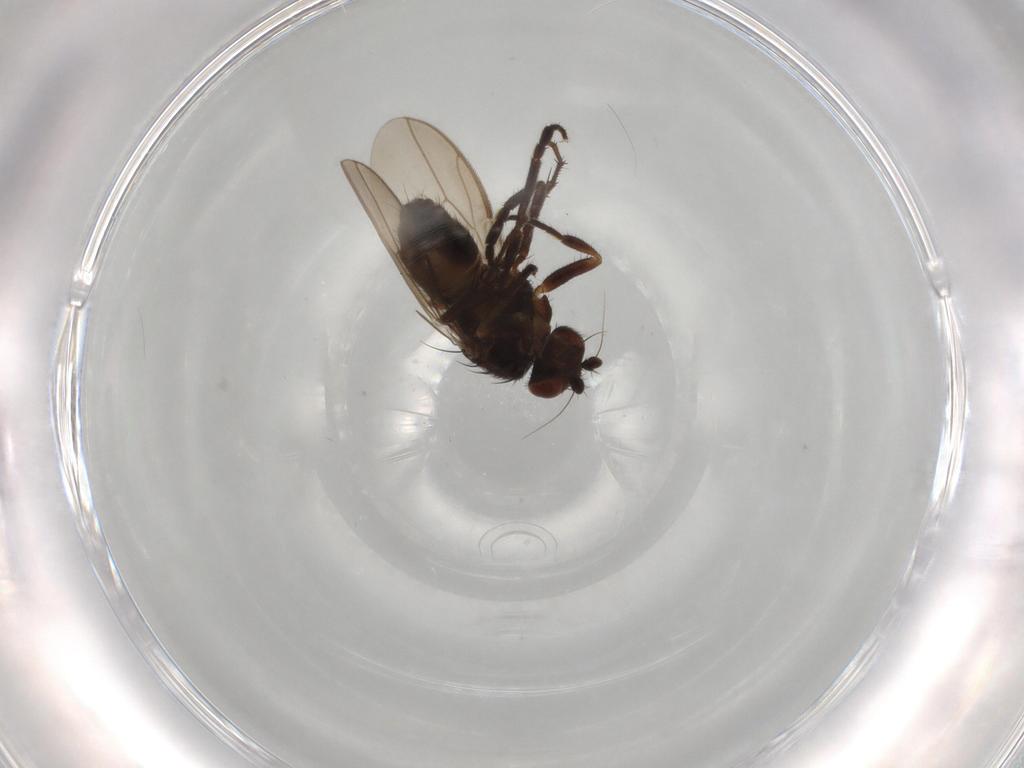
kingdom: Animalia
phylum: Arthropoda
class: Insecta
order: Diptera
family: Sphaeroceridae
